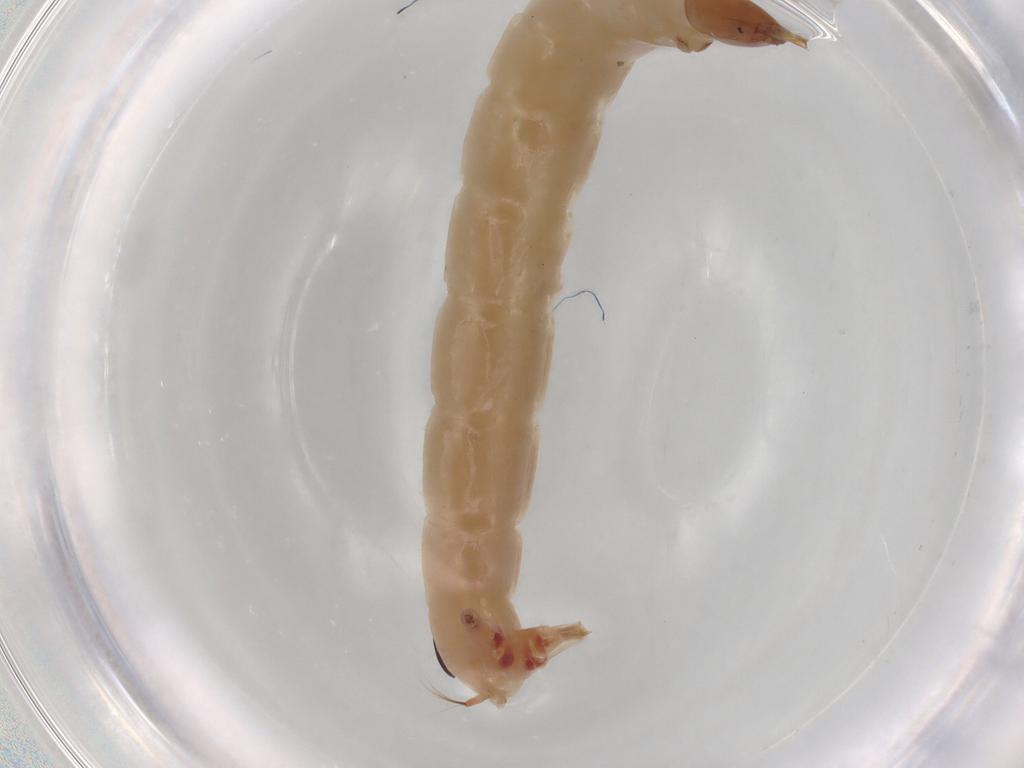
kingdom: Animalia
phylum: Arthropoda
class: Insecta
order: Diptera
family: Chironomidae
